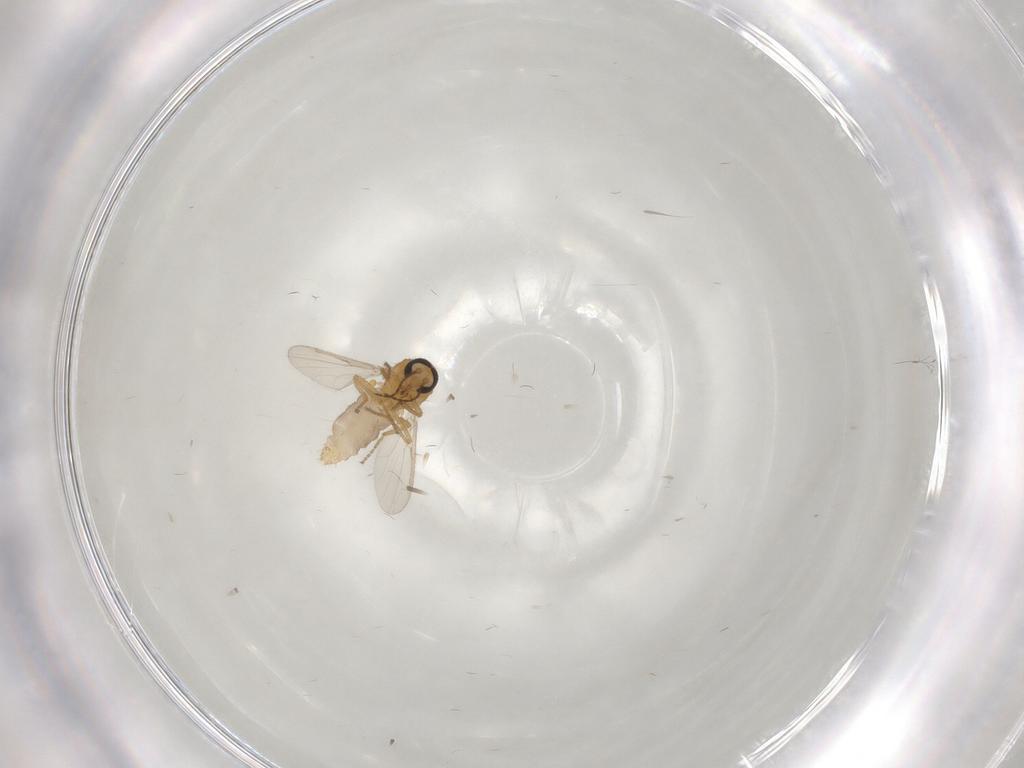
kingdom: Animalia
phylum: Arthropoda
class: Insecta
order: Diptera
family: Ceratopogonidae
